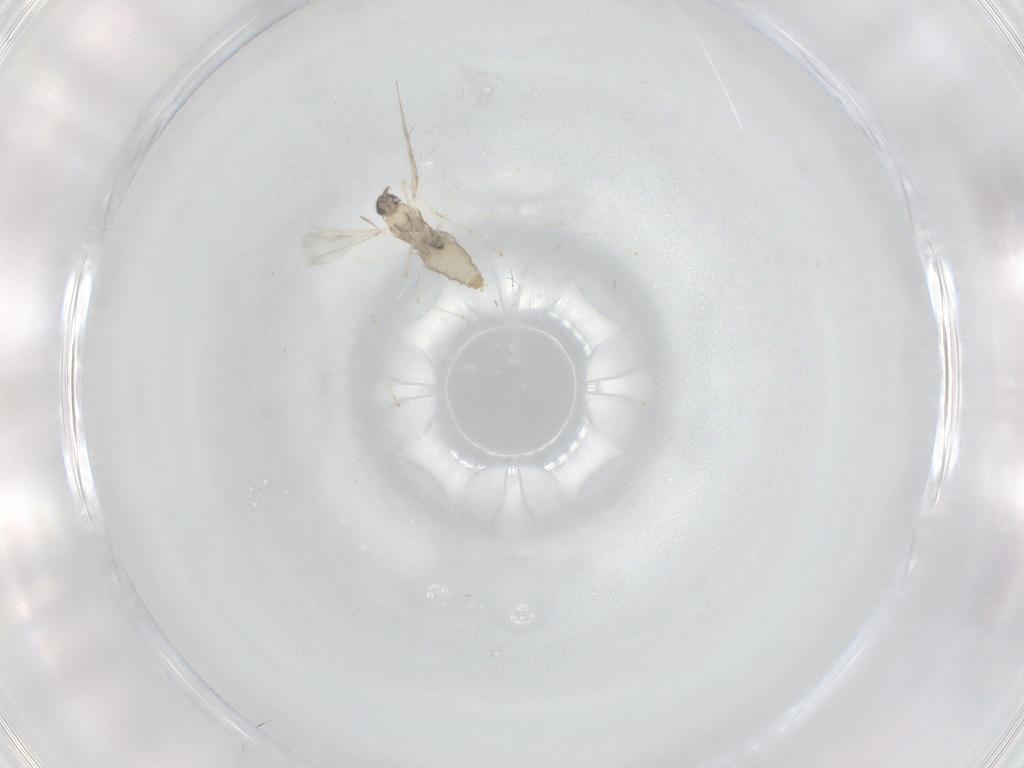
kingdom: Animalia
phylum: Arthropoda
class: Insecta
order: Diptera
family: Cecidomyiidae
